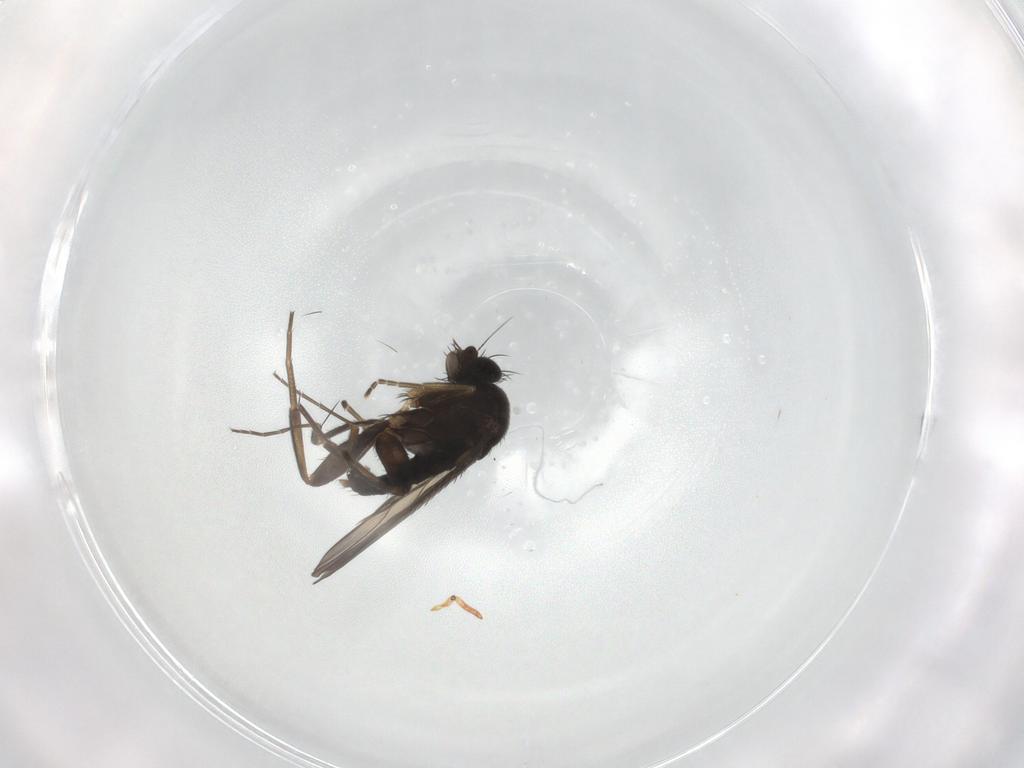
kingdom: Animalia
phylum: Arthropoda
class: Insecta
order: Diptera
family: Phoridae
